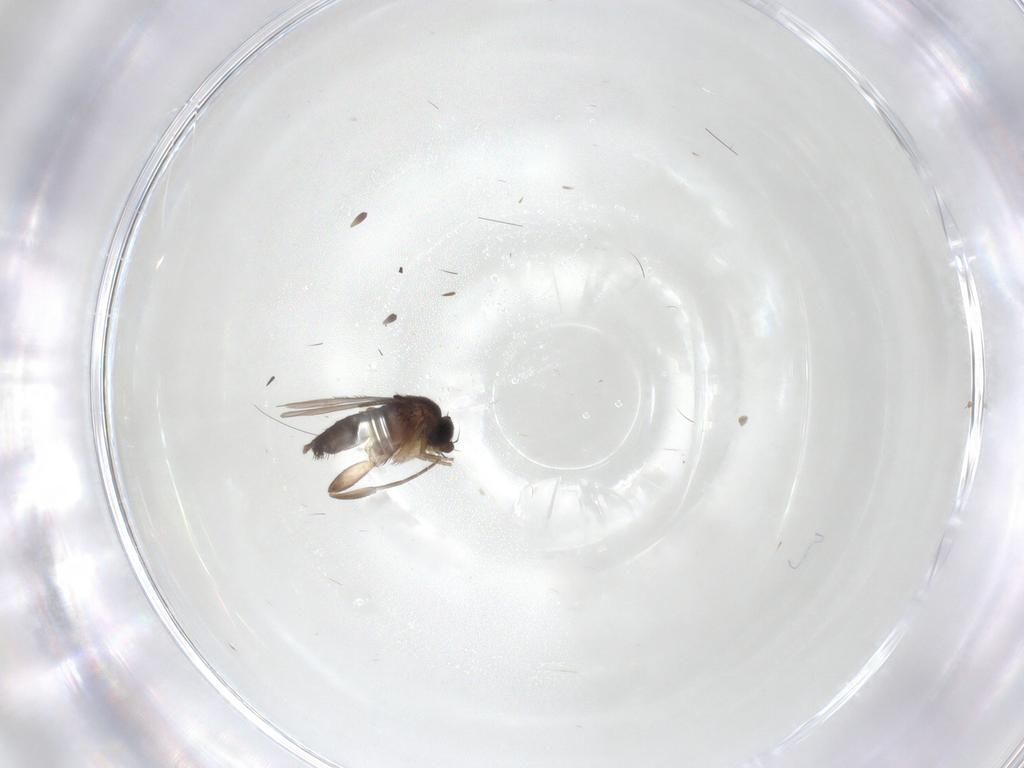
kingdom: Animalia
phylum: Arthropoda
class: Insecta
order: Diptera
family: Phoridae
